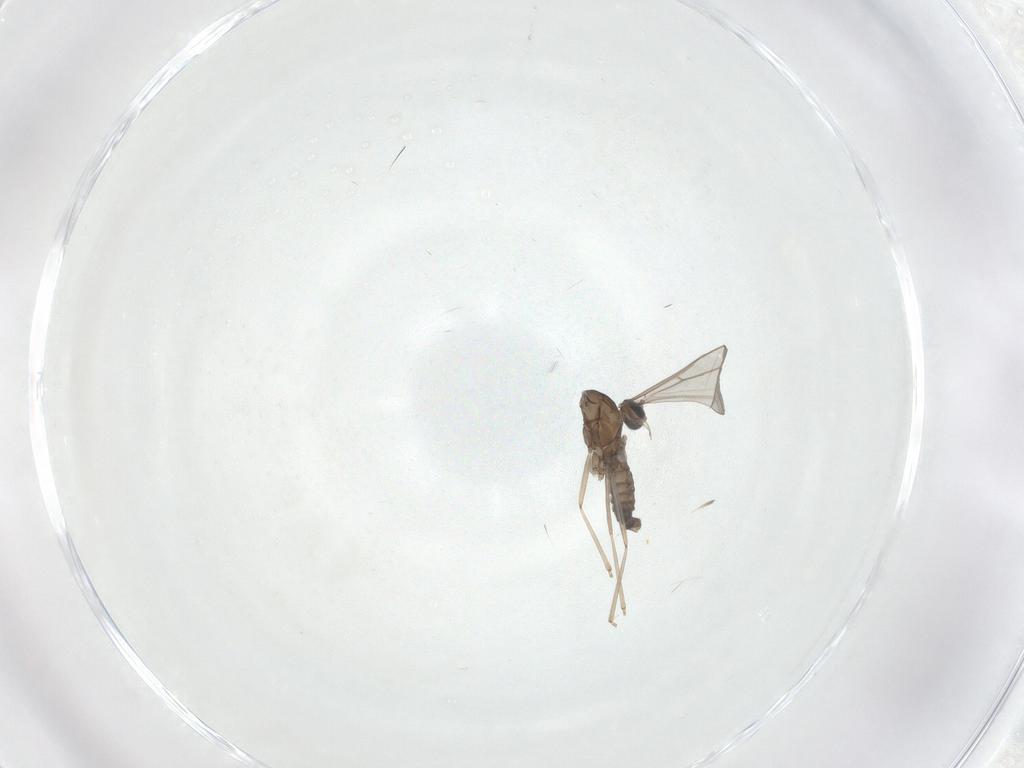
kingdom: Animalia
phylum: Arthropoda
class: Insecta
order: Diptera
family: Cecidomyiidae
